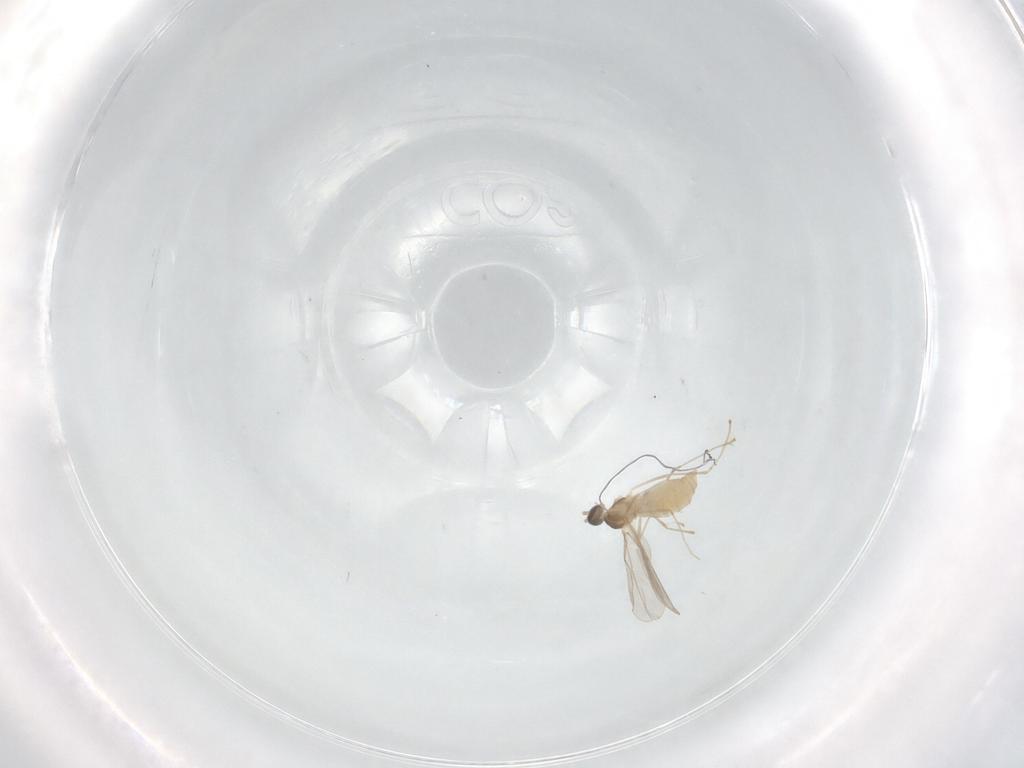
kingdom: Animalia
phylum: Arthropoda
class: Insecta
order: Diptera
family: Cecidomyiidae
